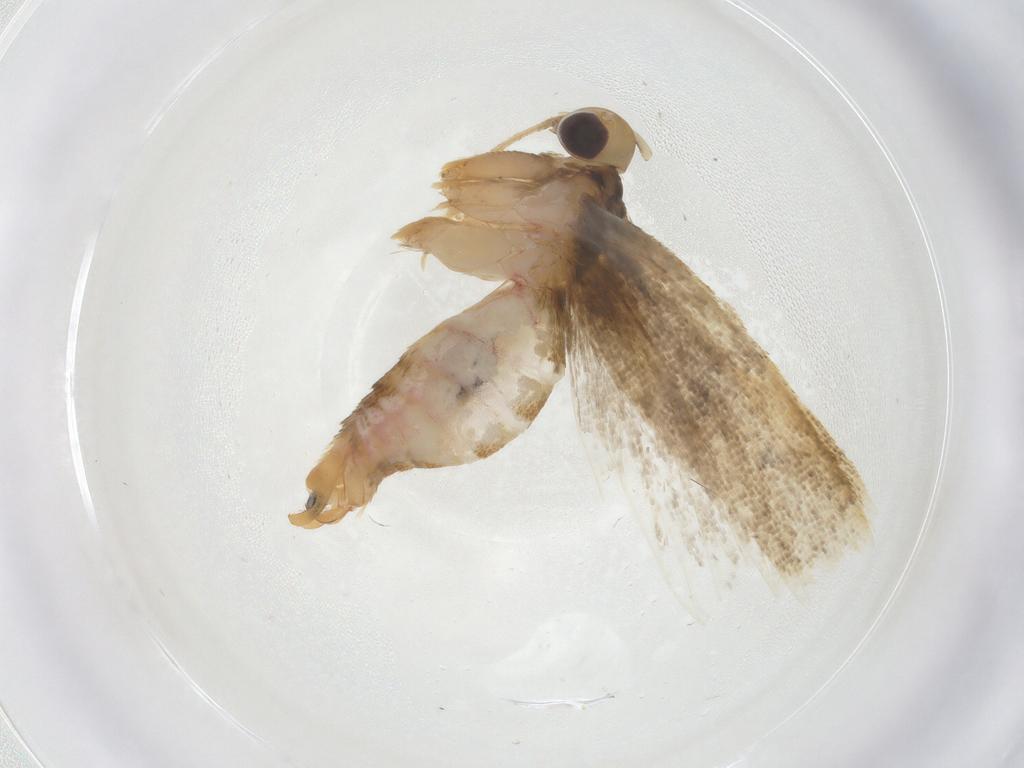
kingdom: Animalia
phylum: Arthropoda
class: Insecta
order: Lepidoptera
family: Lecithoceridae
